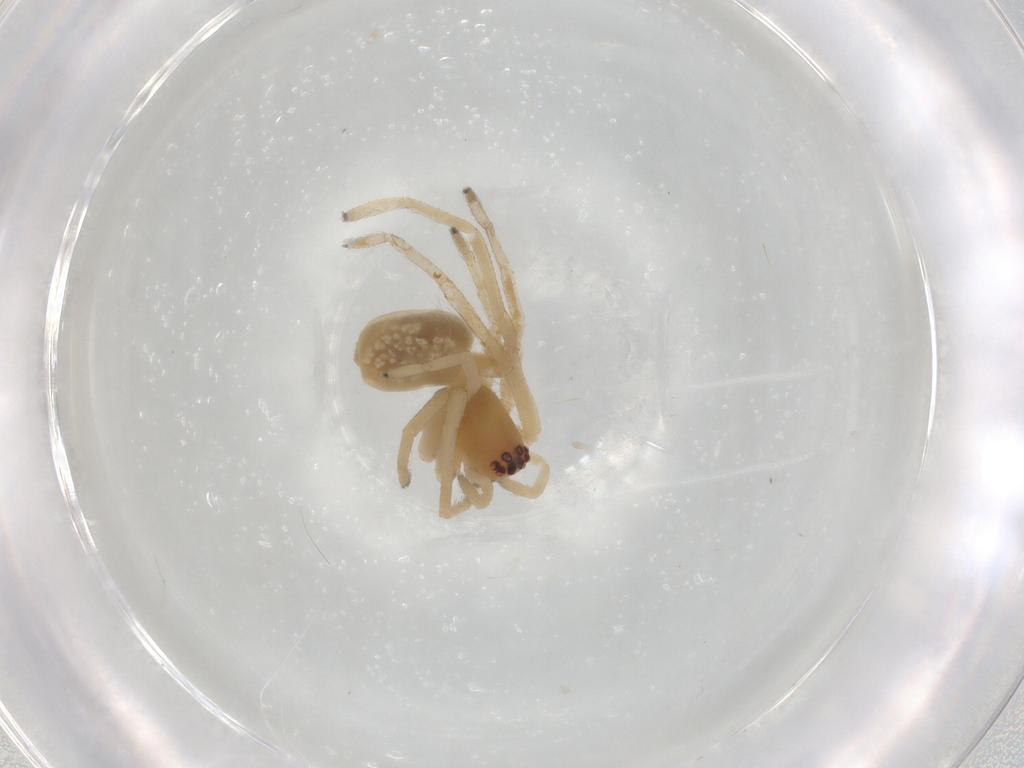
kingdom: Animalia
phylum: Arthropoda
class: Arachnida
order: Araneae
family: Cheiracanthiidae
